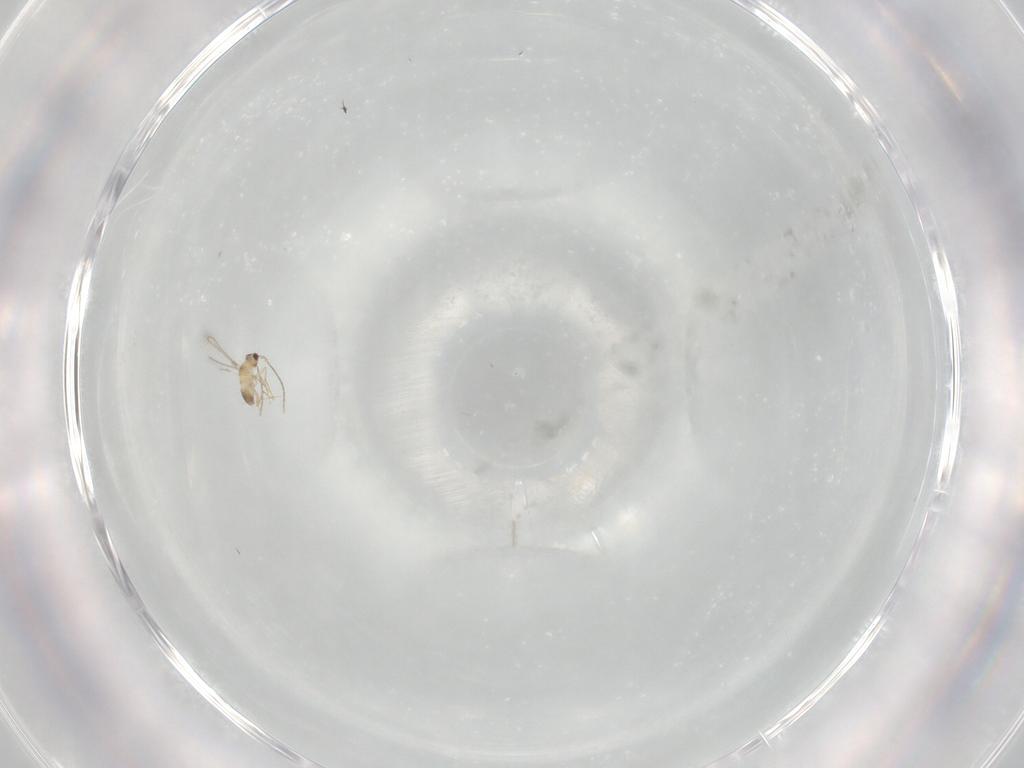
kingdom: Animalia
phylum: Arthropoda
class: Insecta
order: Hymenoptera
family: Mymaridae
